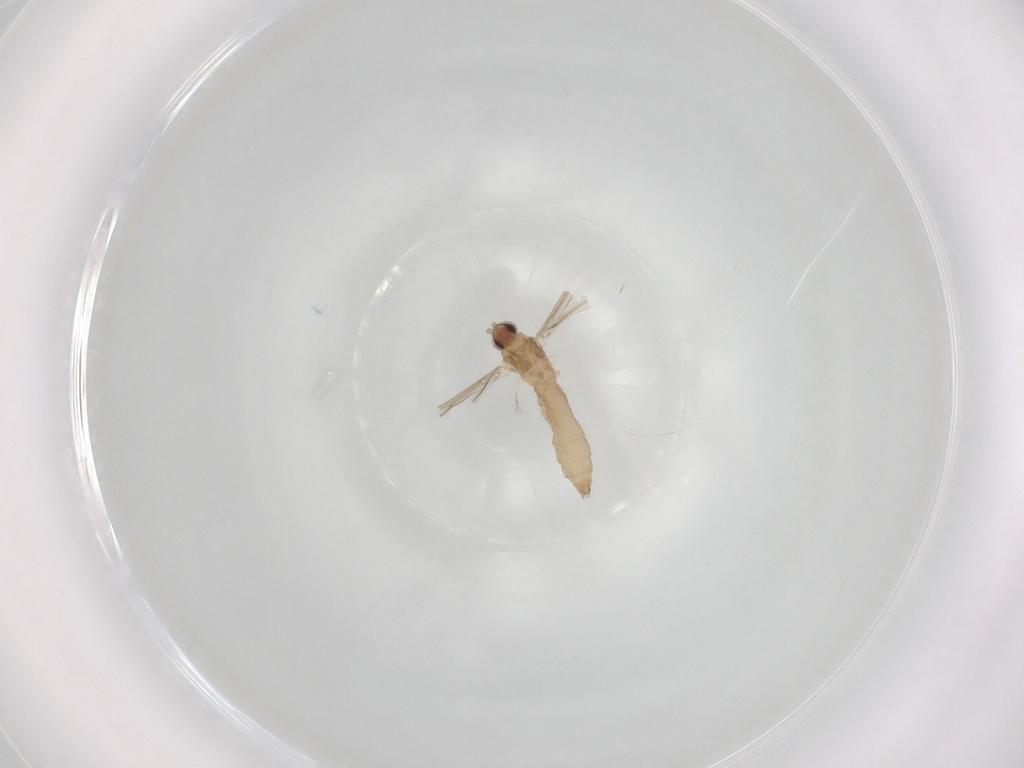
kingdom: Animalia
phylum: Arthropoda
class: Insecta
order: Diptera
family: Cecidomyiidae
